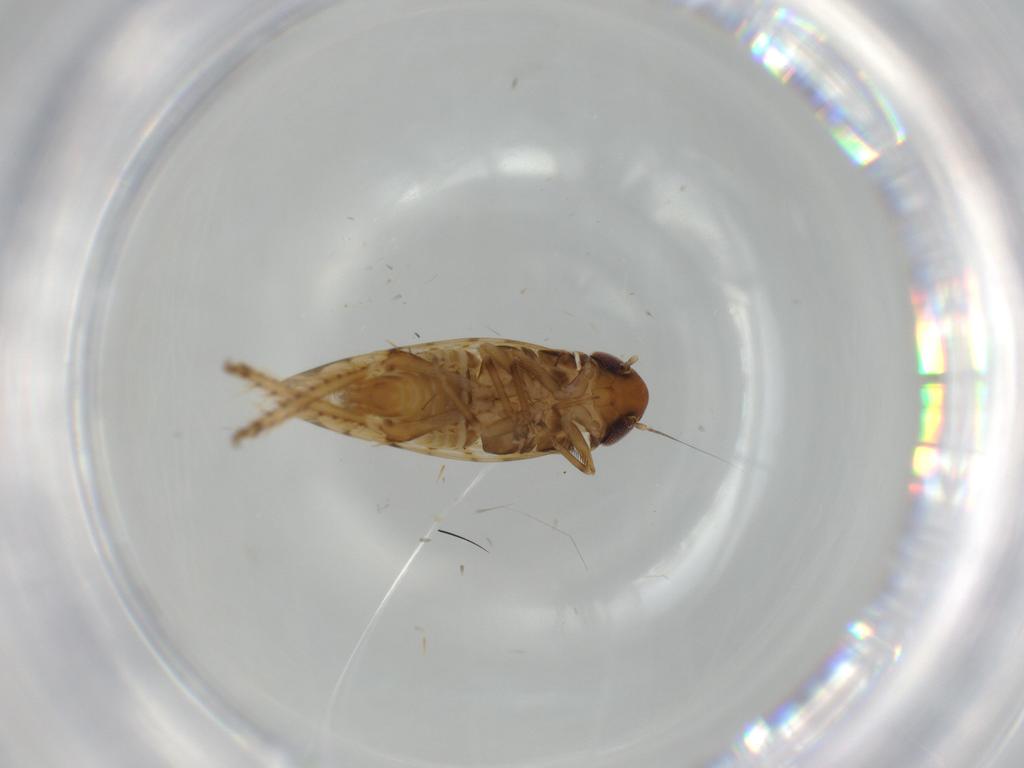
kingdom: Animalia
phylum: Arthropoda
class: Insecta
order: Hemiptera
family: Cicadellidae
